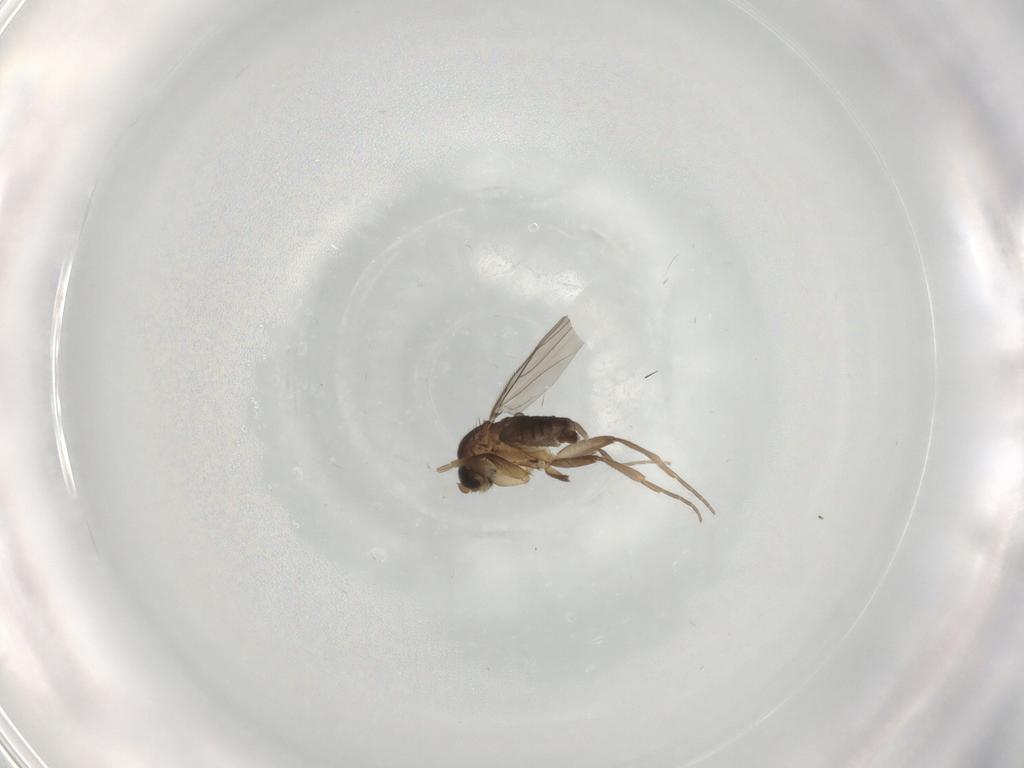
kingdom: Animalia
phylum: Arthropoda
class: Insecta
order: Diptera
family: Phoridae
